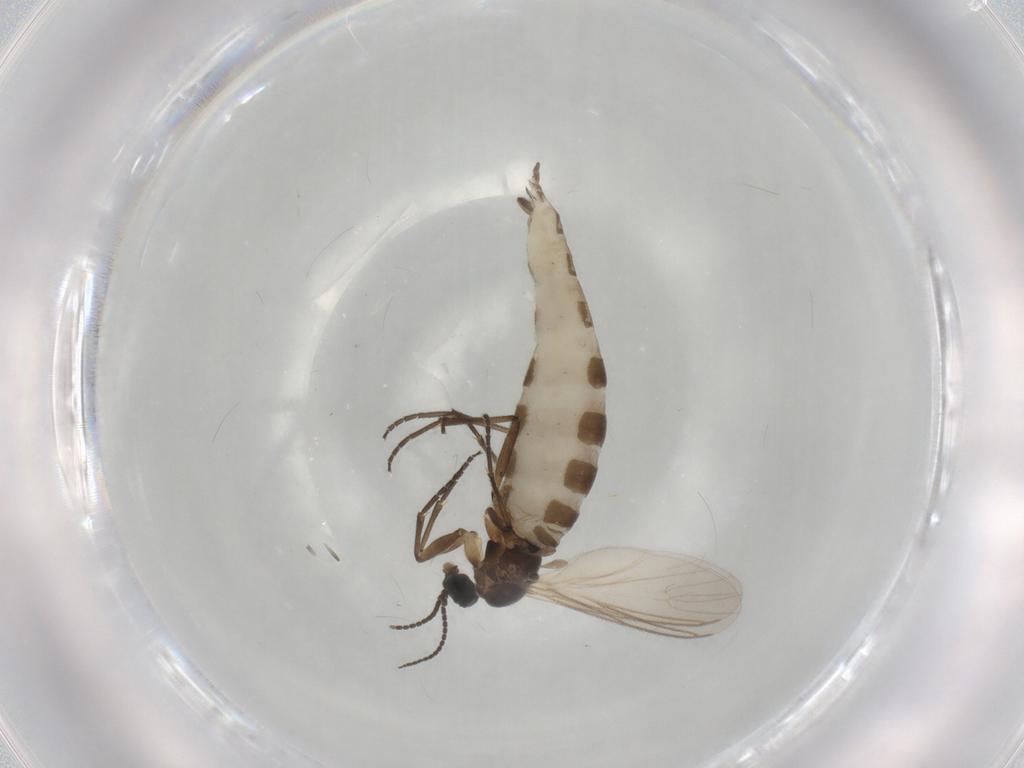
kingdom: Animalia
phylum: Arthropoda
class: Insecta
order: Diptera
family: Sciaridae
